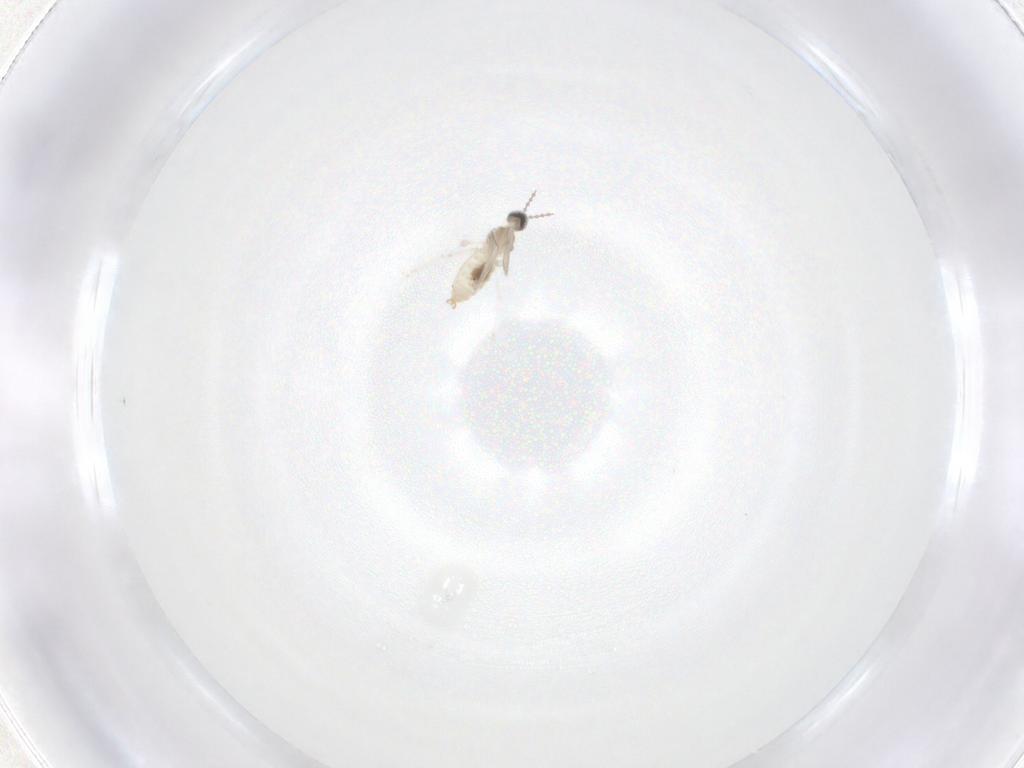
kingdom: Animalia
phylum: Arthropoda
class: Insecta
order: Diptera
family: Cecidomyiidae
